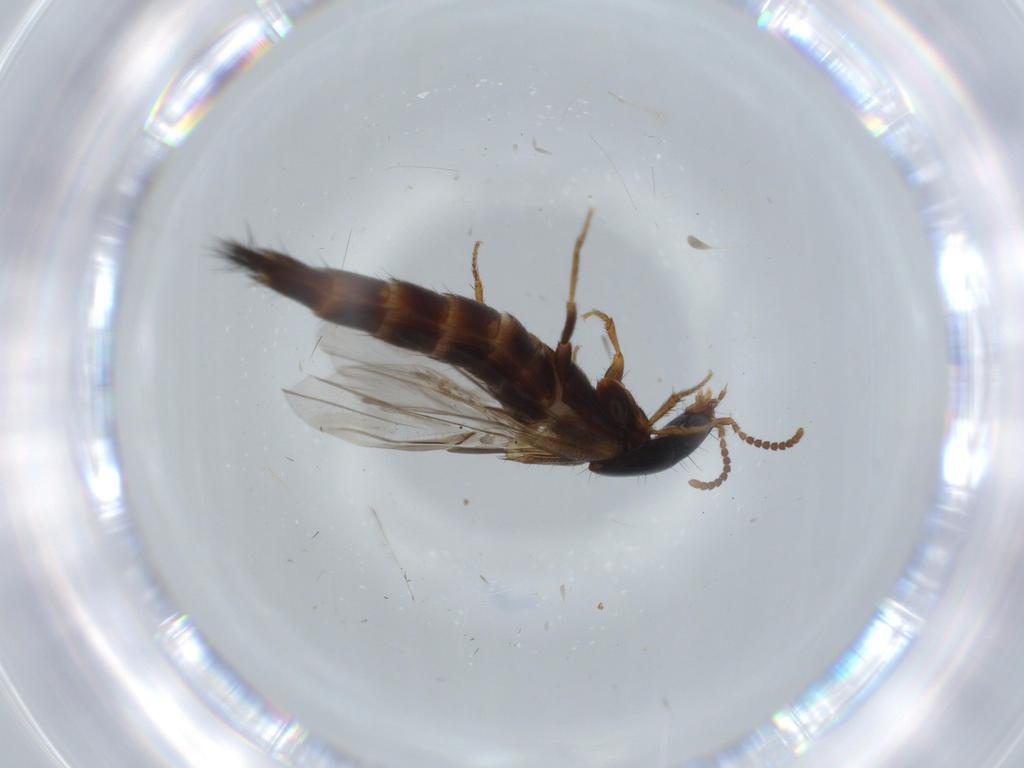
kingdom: Animalia
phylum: Arthropoda
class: Insecta
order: Coleoptera
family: Staphylinidae
